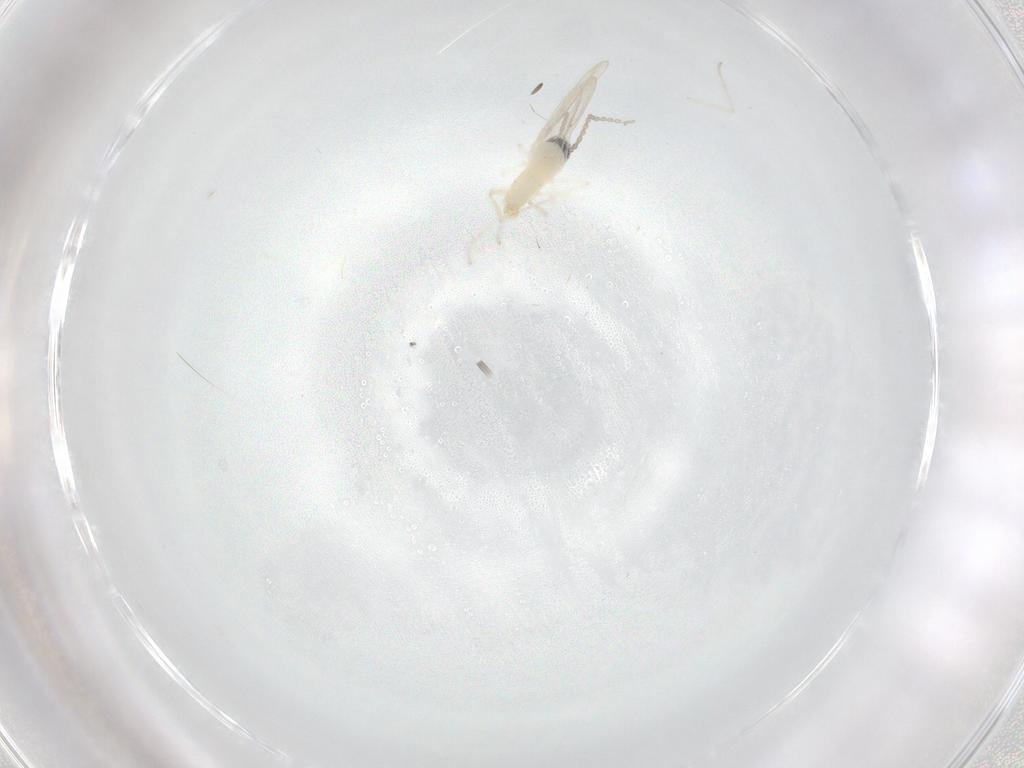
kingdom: Animalia
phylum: Arthropoda
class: Insecta
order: Diptera
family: Cecidomyiidae
